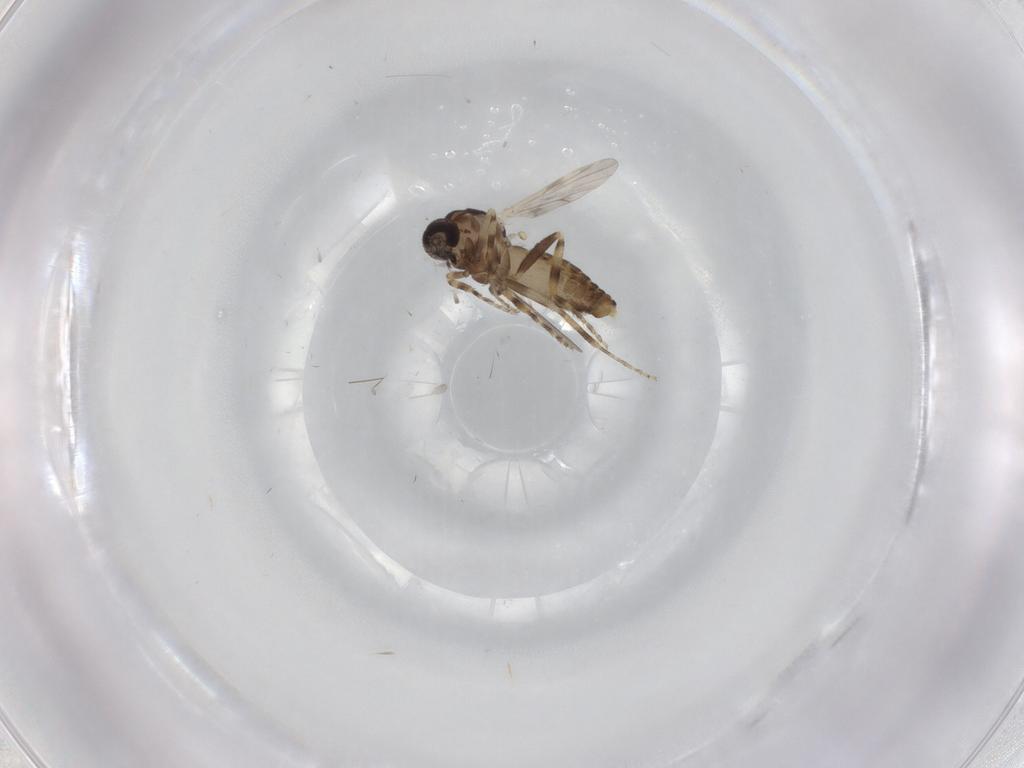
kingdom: Animalia
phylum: Arthropoda
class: Insecta
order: Diptera
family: Ceratopogonidae
